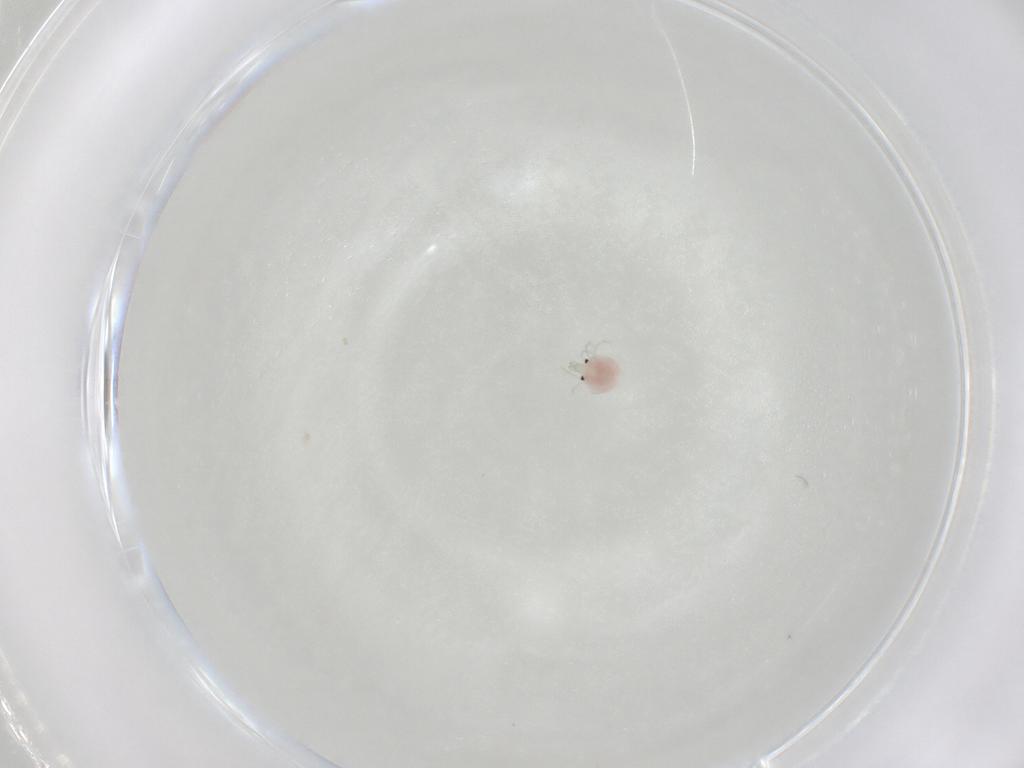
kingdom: Animalia
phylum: Arthropoda
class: Arachnida
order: Trombidiformes
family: Pionidae
